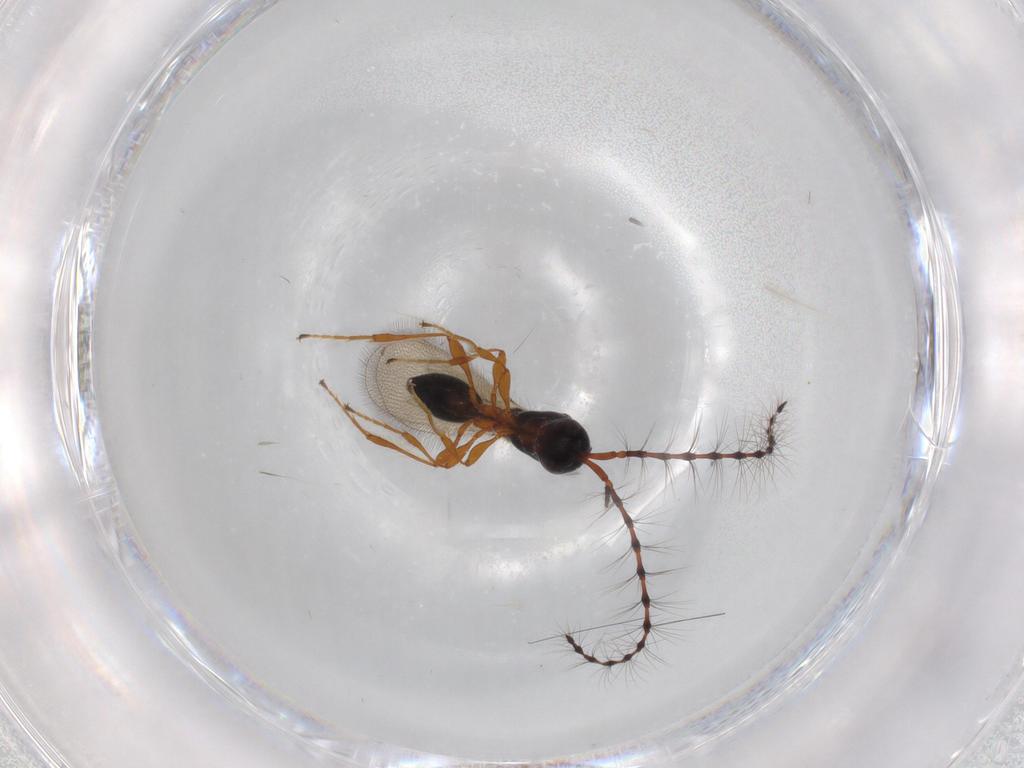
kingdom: Animalia
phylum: Arthropoda
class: Insecta
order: Hymenoptera
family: Diapriidae
